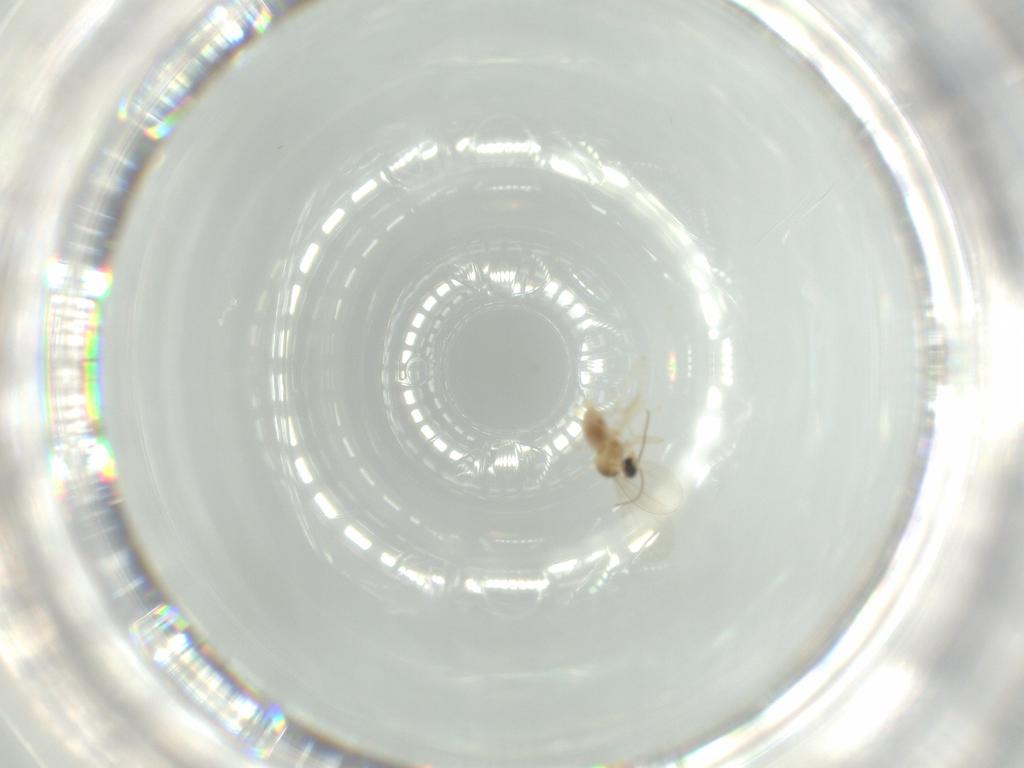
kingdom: Animalia
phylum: Arthropoda
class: Insecta
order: Diptera
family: Cecidomyiidae
